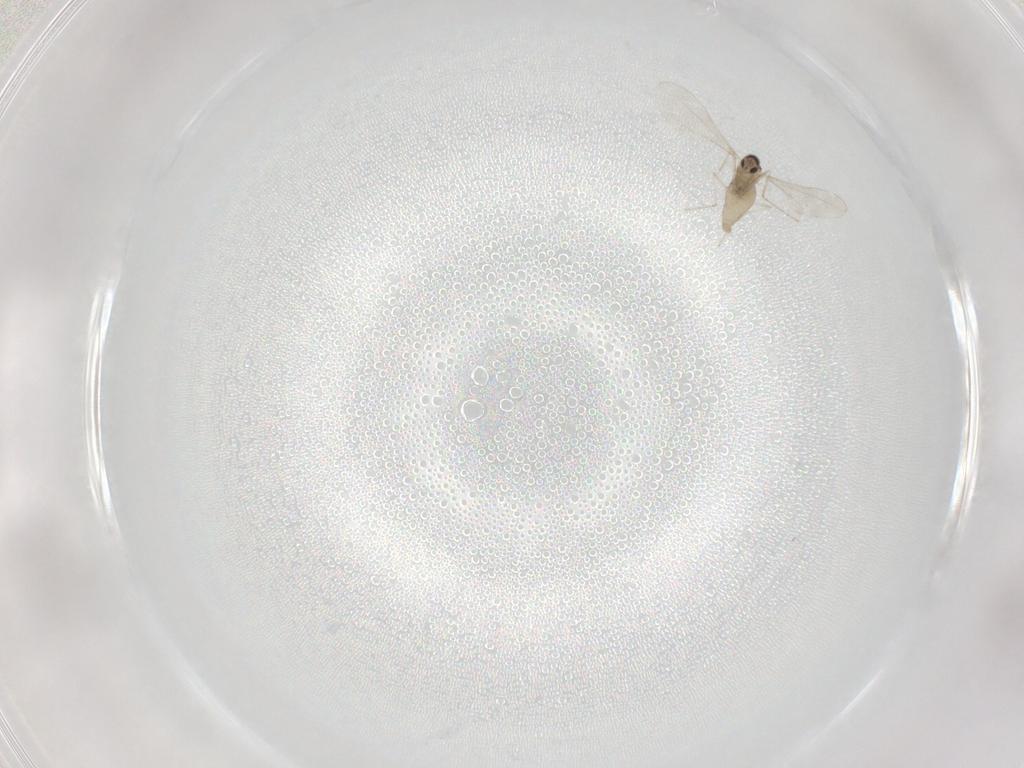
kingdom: Animalia
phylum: Arthropoda
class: Insecta
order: Diptera
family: Cecidomyiidae
